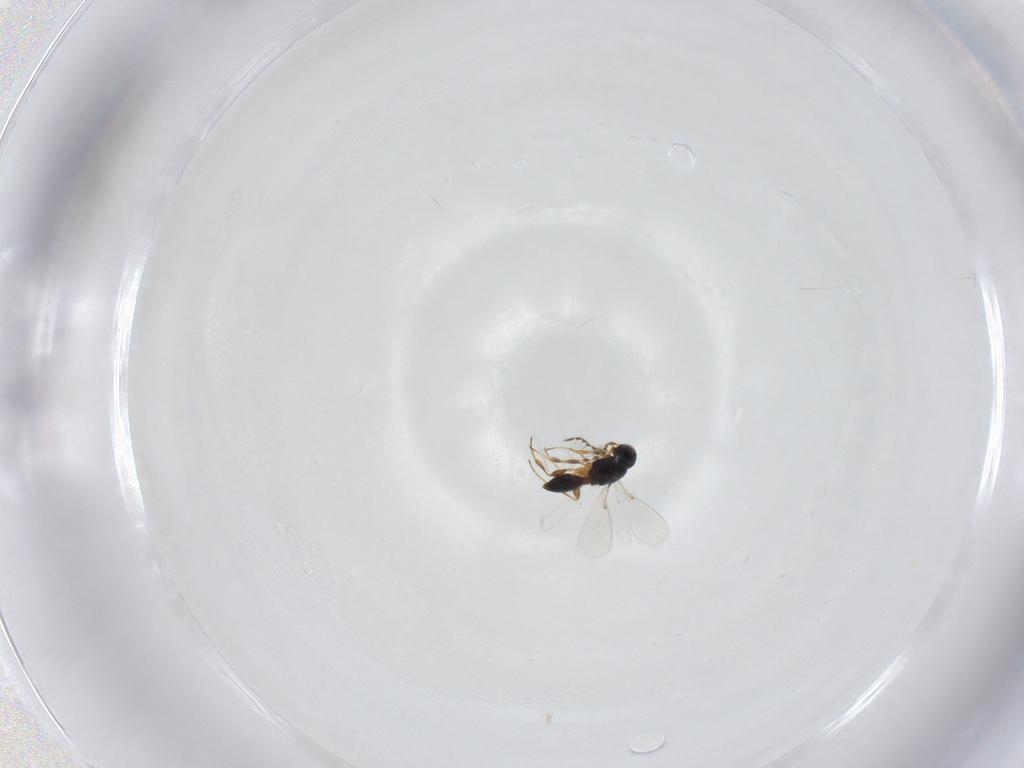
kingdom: Animalia
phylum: Arthropoda
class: Insecta
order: Hymenoptera
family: Platygastridae
